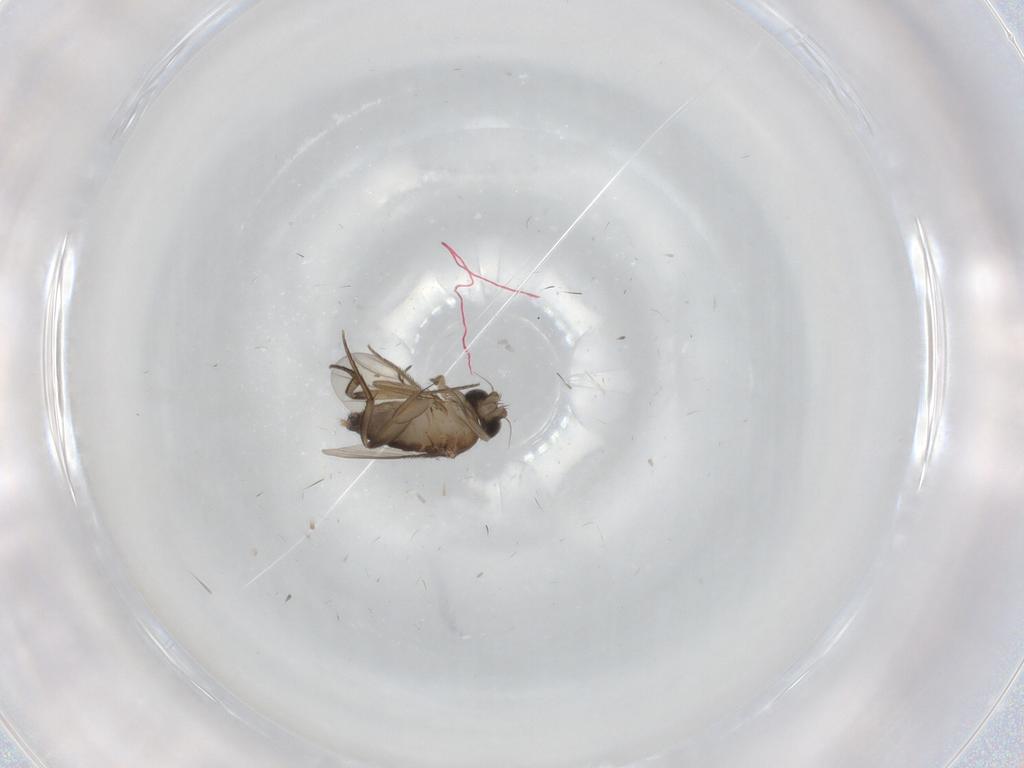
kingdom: Animalia
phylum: Arthropoda
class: Insecta
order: Diptera
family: Phoridae
